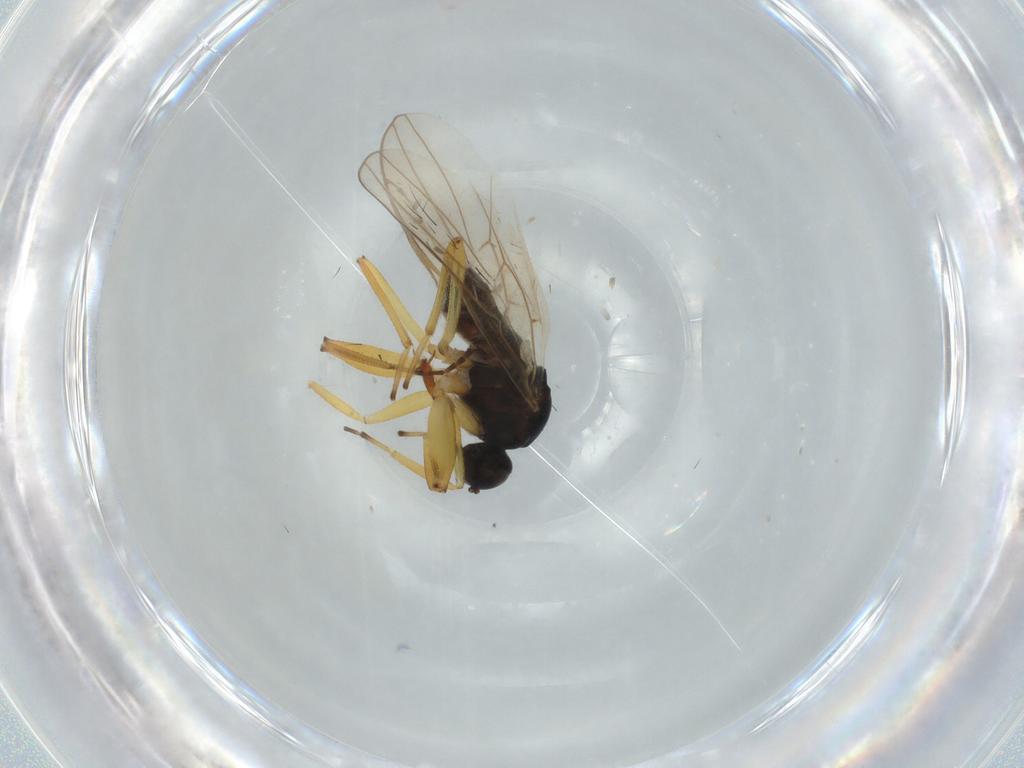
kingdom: Animalia
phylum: Arthropoda
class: Insecta
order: Diptera
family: Hybotidae
